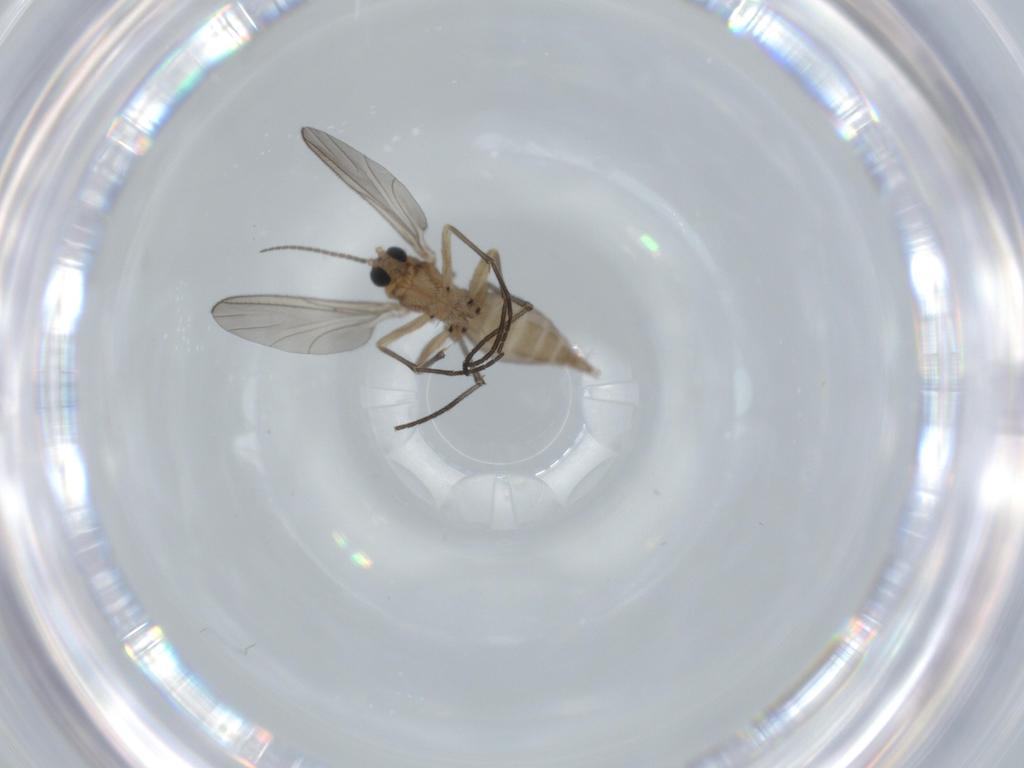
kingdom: Animalia
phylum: Arthropoda
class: Insecta
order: Diptera
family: Sciaridae
